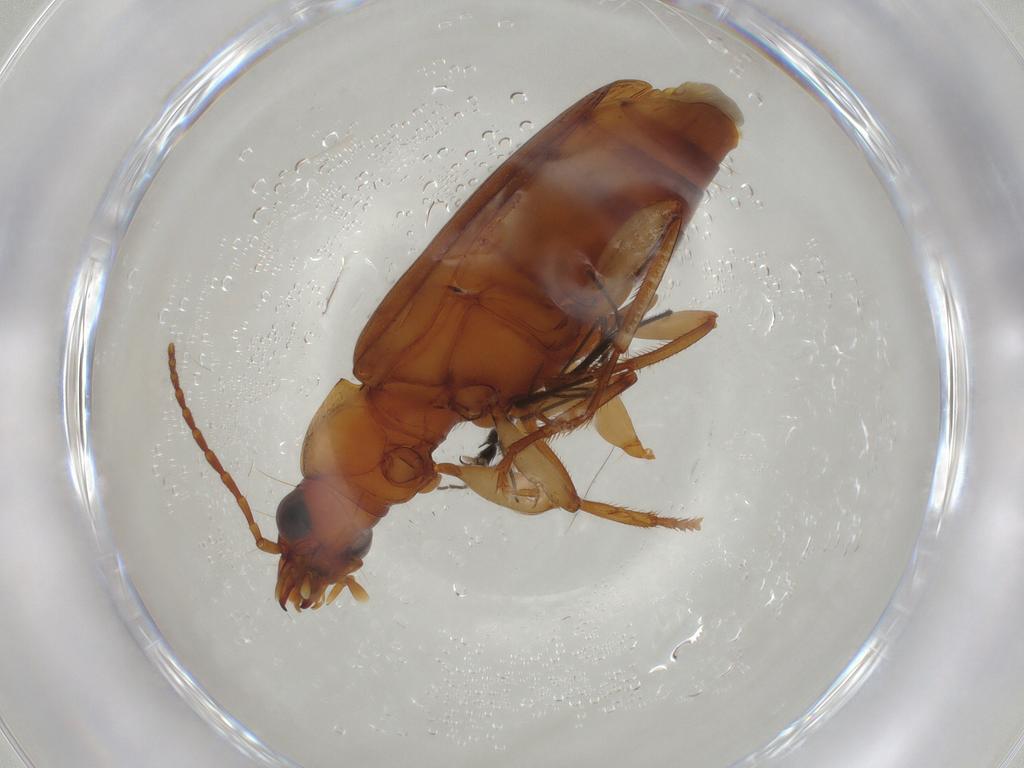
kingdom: Animalia
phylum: Arthropoda
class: Insecta
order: Coleoptera
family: Carabidae
